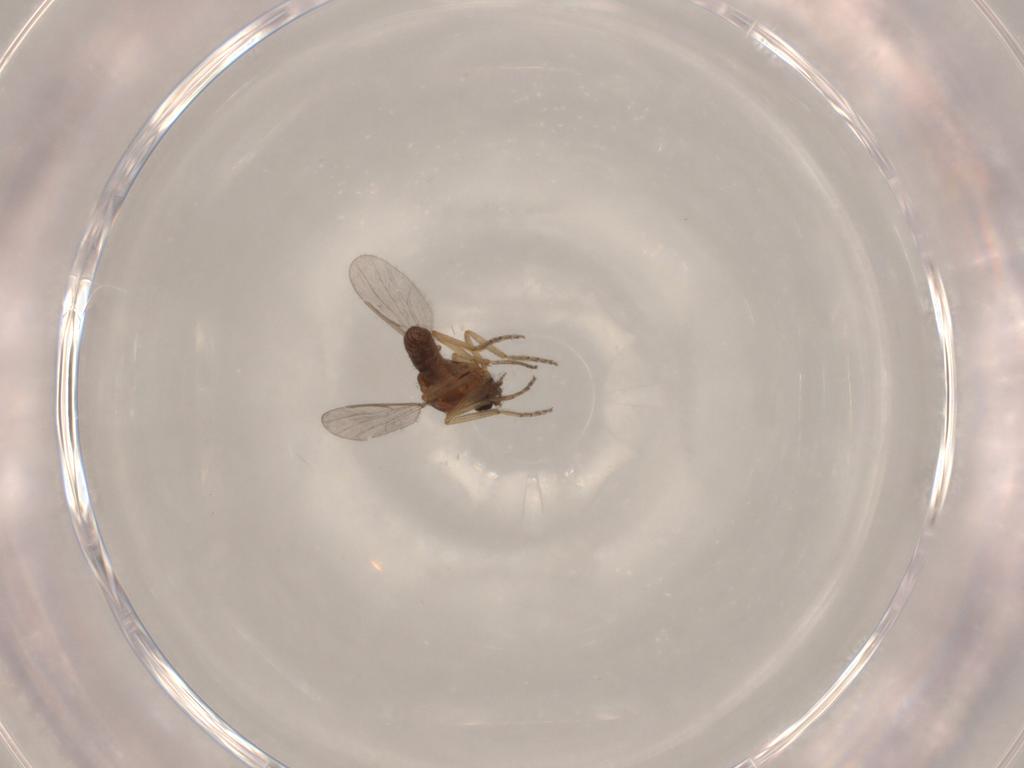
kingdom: Animalia
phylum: Arthropoda
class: Insecta
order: Diptera
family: Ceratopogonidae
